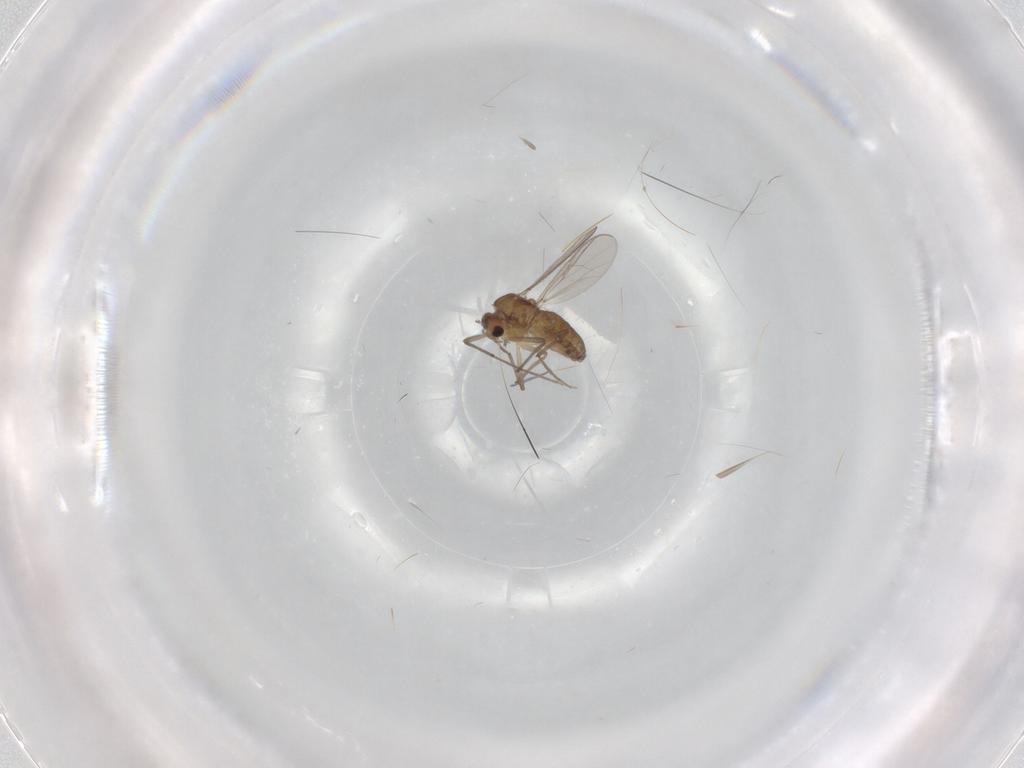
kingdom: Animalia
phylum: Arthropoda
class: Insecta
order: Diptera
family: Chironomidae
